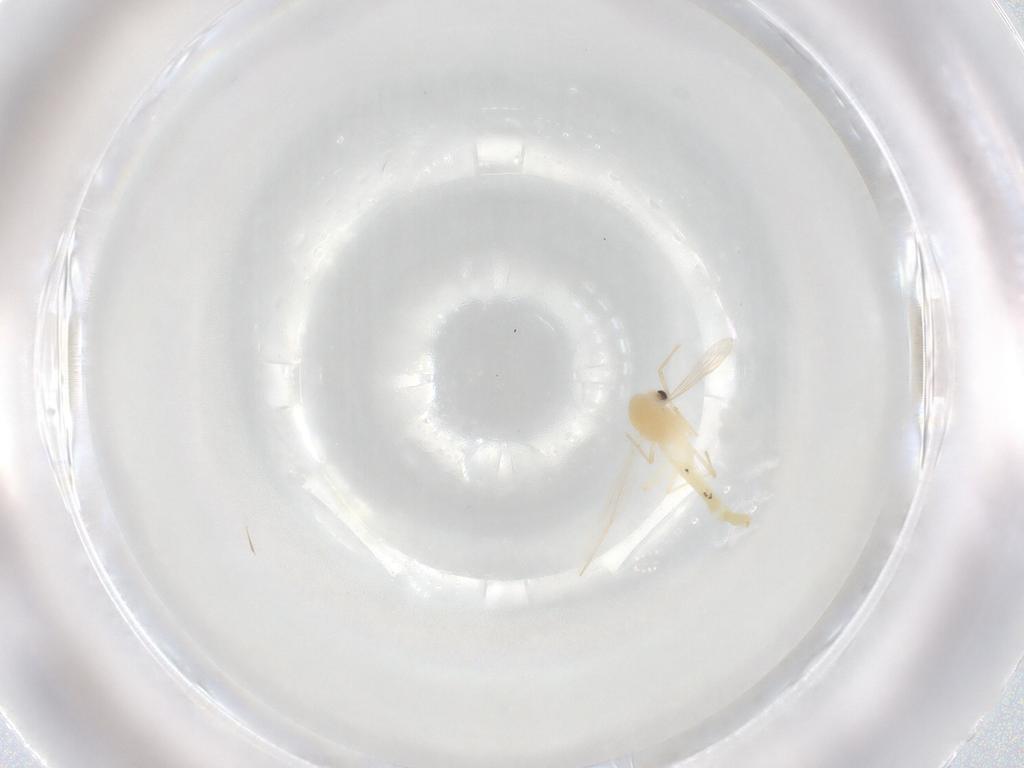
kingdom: Animalia
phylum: Arthropoda
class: Insecta
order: Diptera
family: Chironomidae
